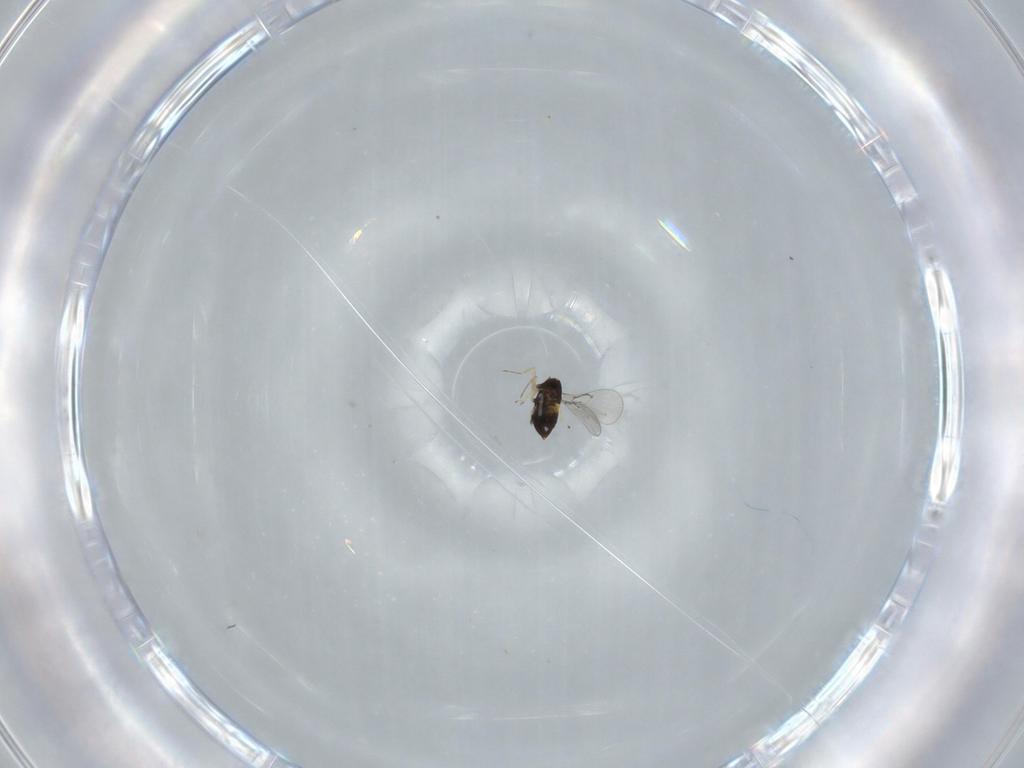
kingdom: Animalia
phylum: Arthropoda
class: Insecta
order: Hymenoptera
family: Trichogrammatidae
